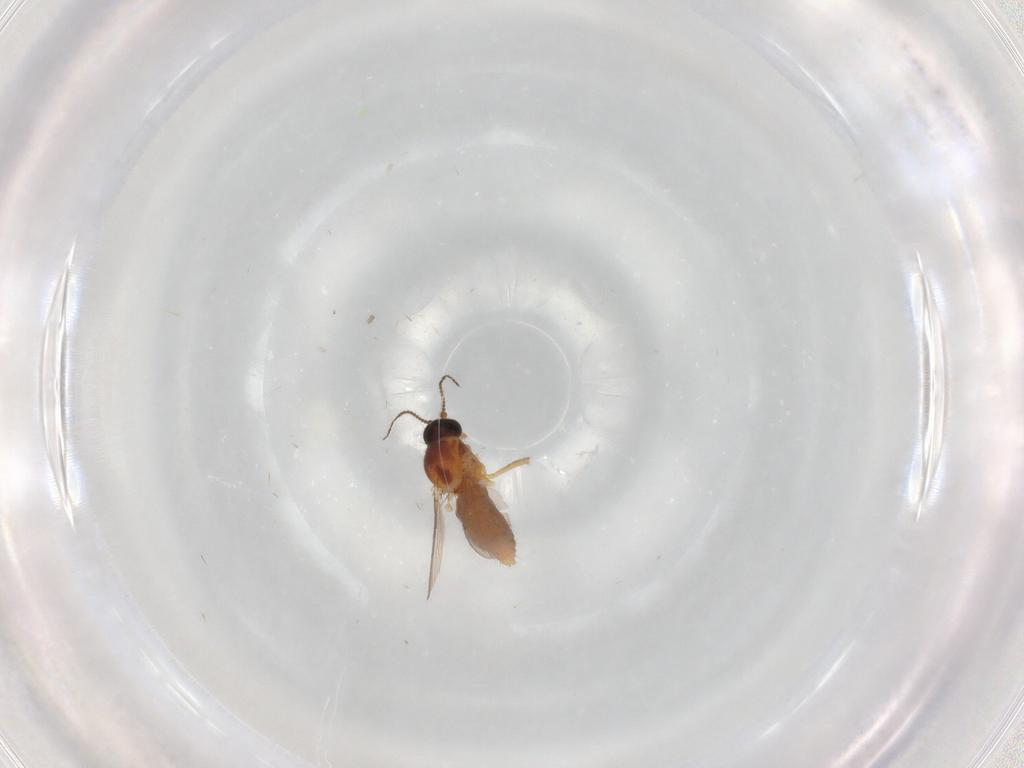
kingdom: Animalia
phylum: Arthropoda
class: Insecta
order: Diptera
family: Ceratopogonidae
